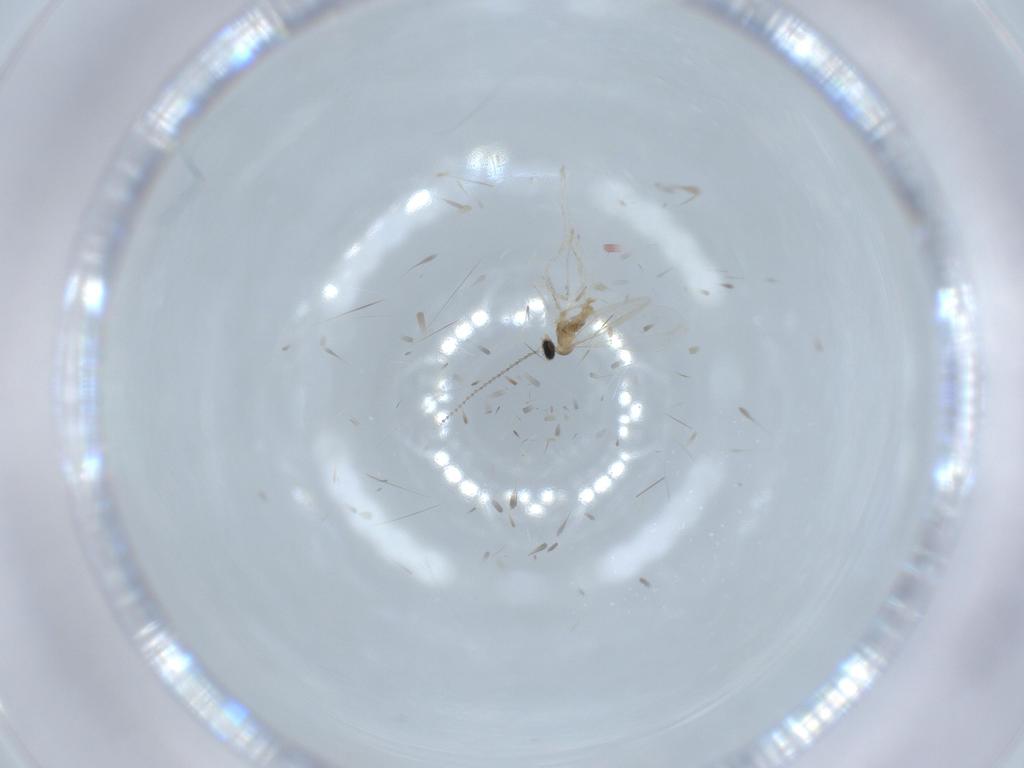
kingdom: Animalia
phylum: Arthropoda
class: Insecta
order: Diptera
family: Cecidomyiidae
